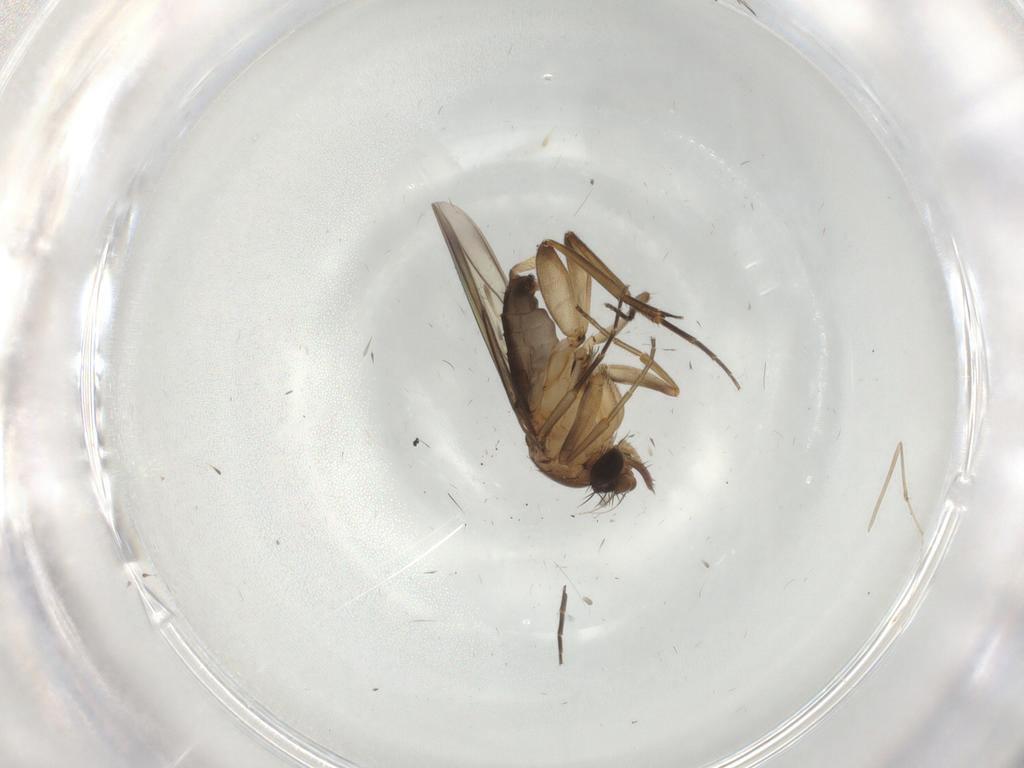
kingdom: Animalia
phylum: Arthropoda
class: Insecta
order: Diptera
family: Phoridae
